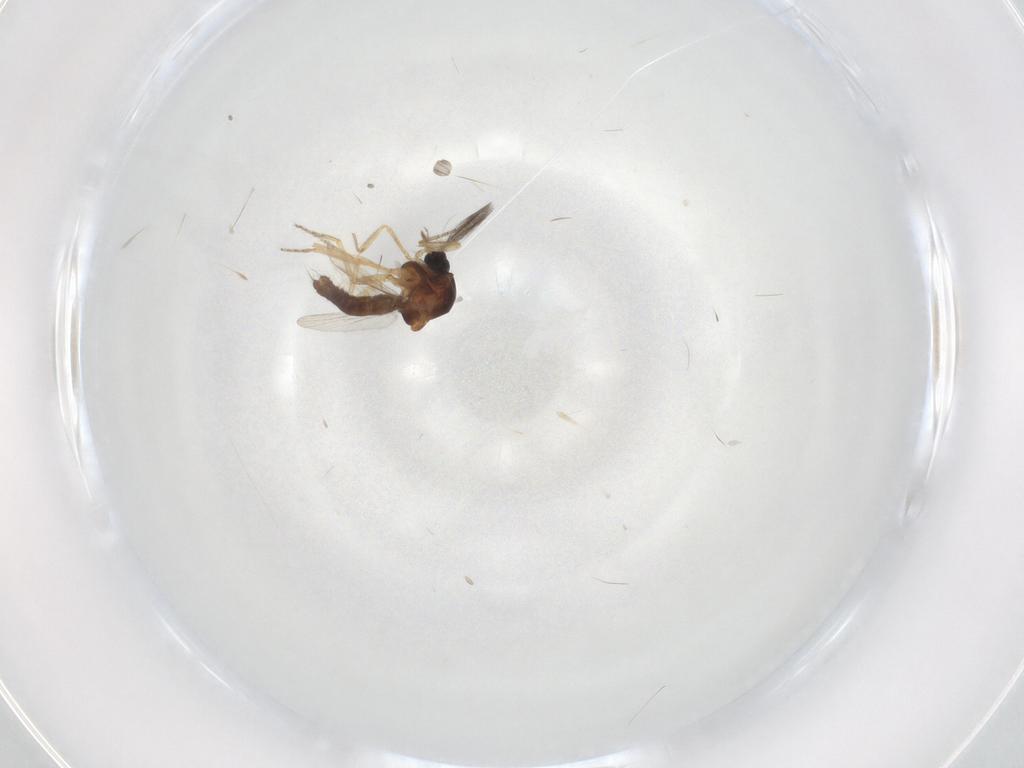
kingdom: Animalia
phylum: Arthropoda
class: Insecta
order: Diptera
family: Ceratopogonidae
